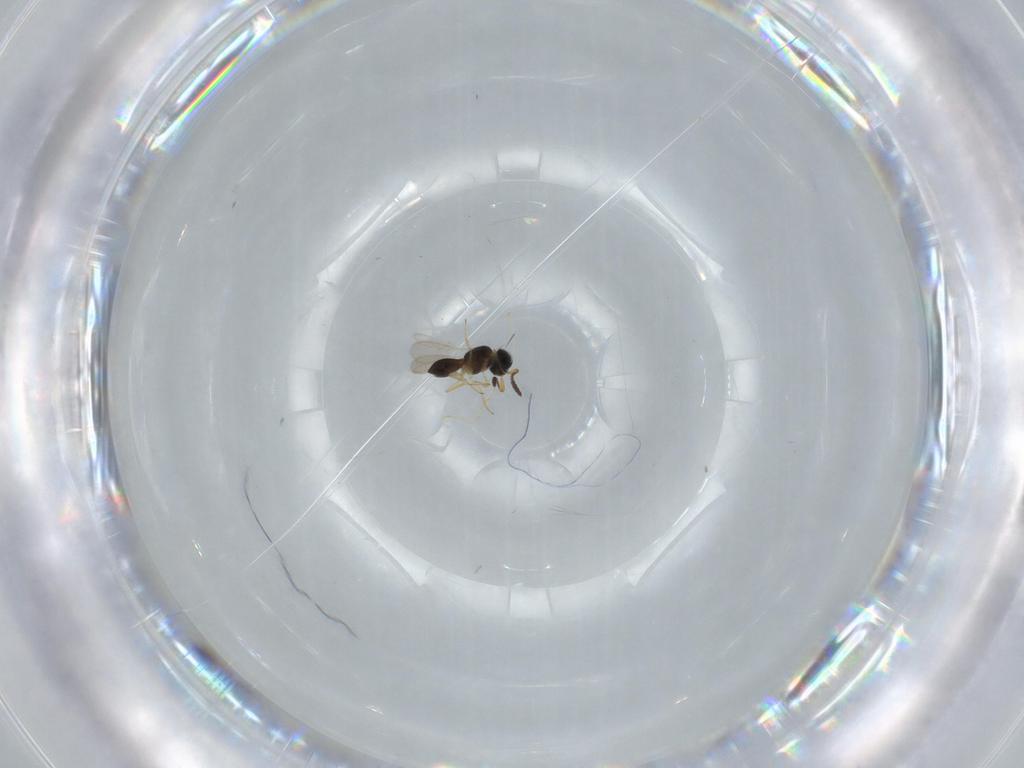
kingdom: Animalia
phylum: Arthropoda
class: Insecta
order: Hymenoptera
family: Scelionidae
